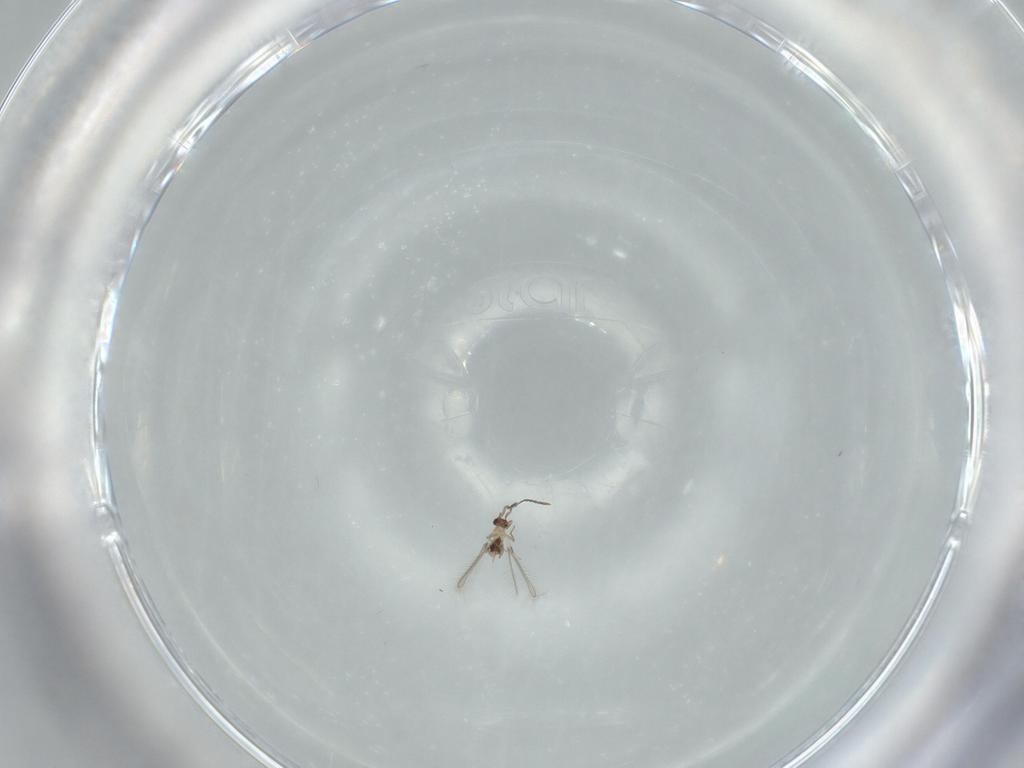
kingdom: Animalia
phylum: Arthropoda
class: Insecta
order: Hymenoptera
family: Mymaridae
